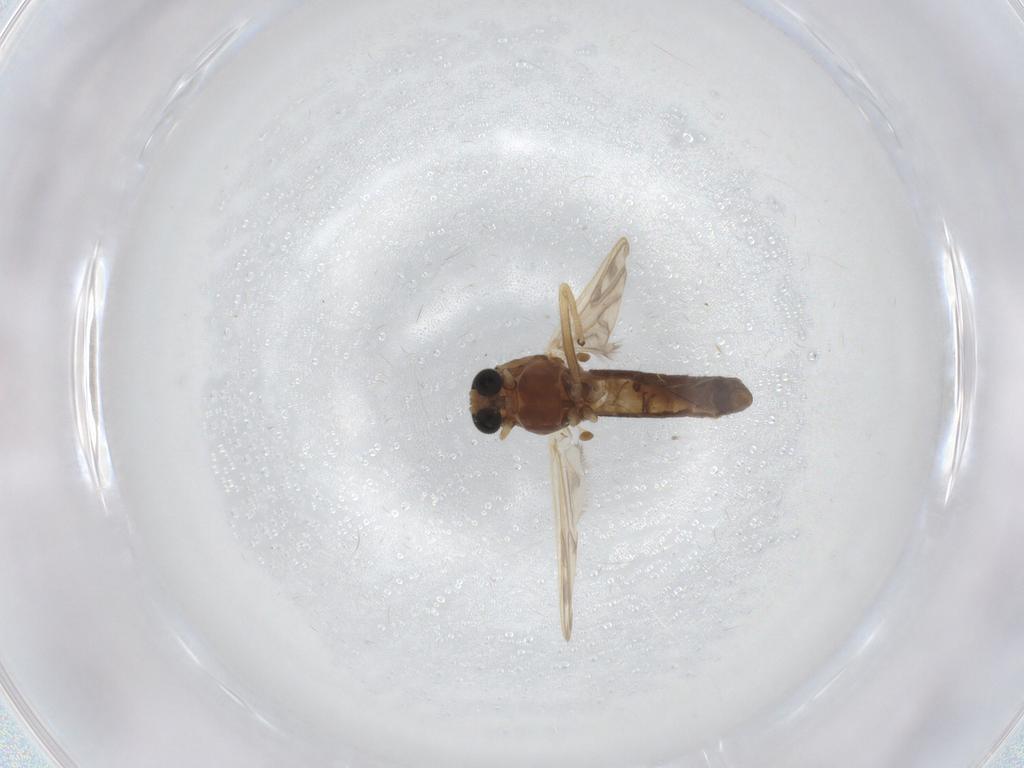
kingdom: Animalia
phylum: Arthropoda
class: Insecta
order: Diptera
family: Chironomidae
